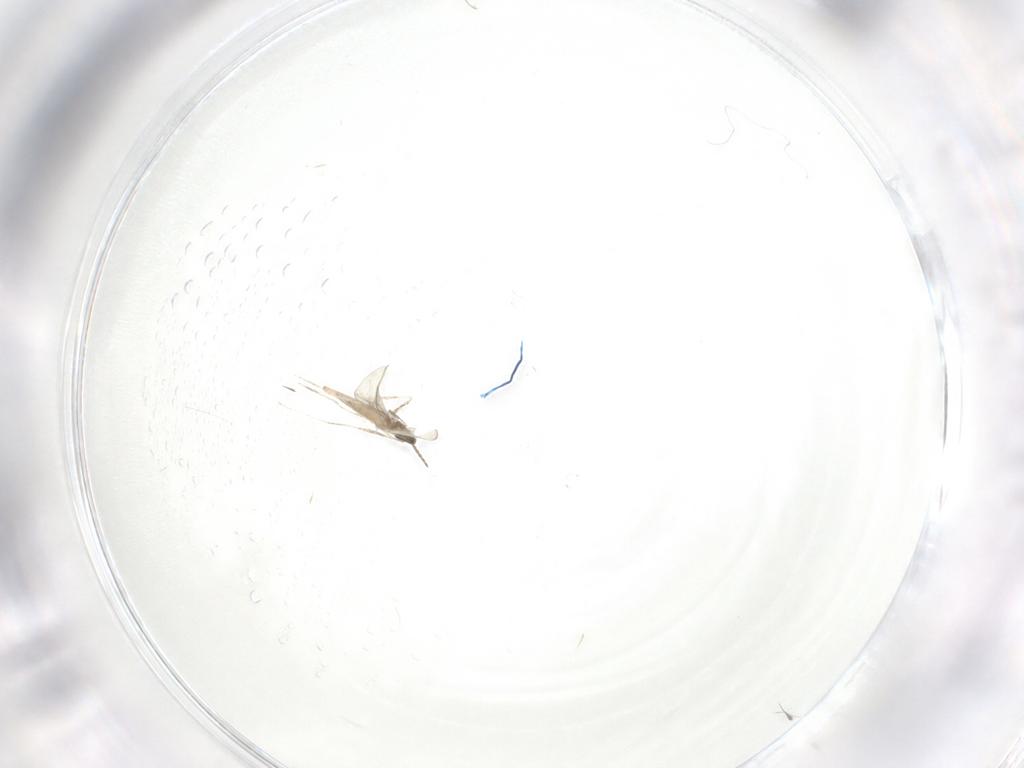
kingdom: Animalia
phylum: Arthropoda
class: Insecta
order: Diptera
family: Cecidomyiidae
